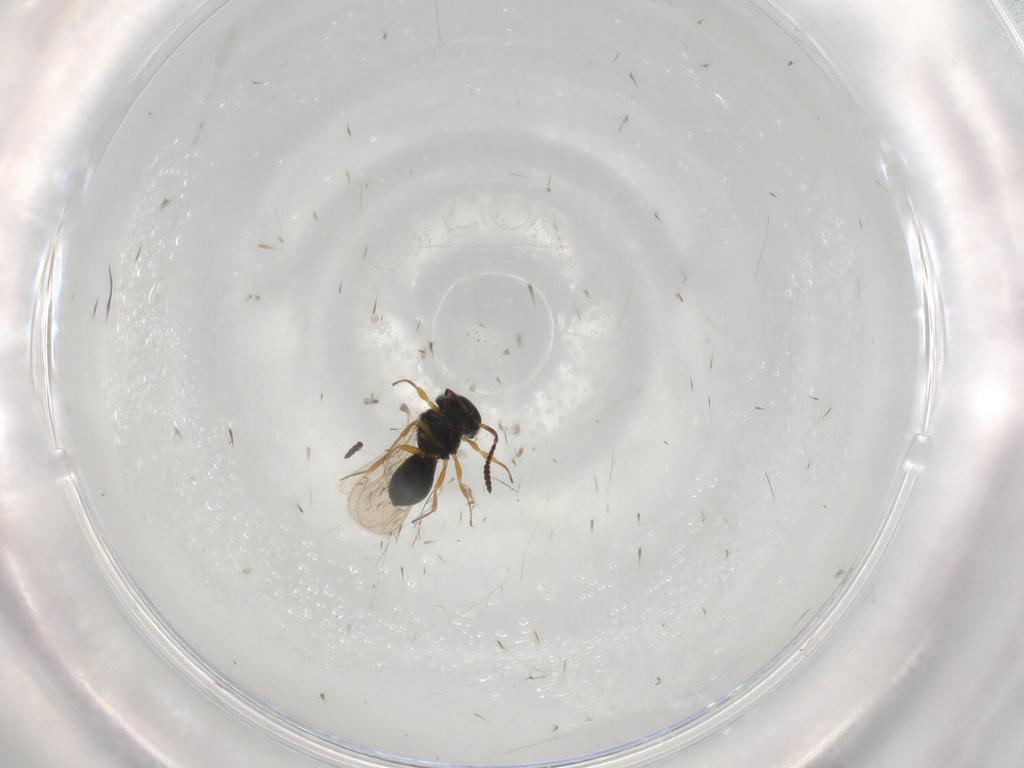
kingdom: Animalia
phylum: Arthropoda
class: Insecta
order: Hymenoptera
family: Scelionidae
